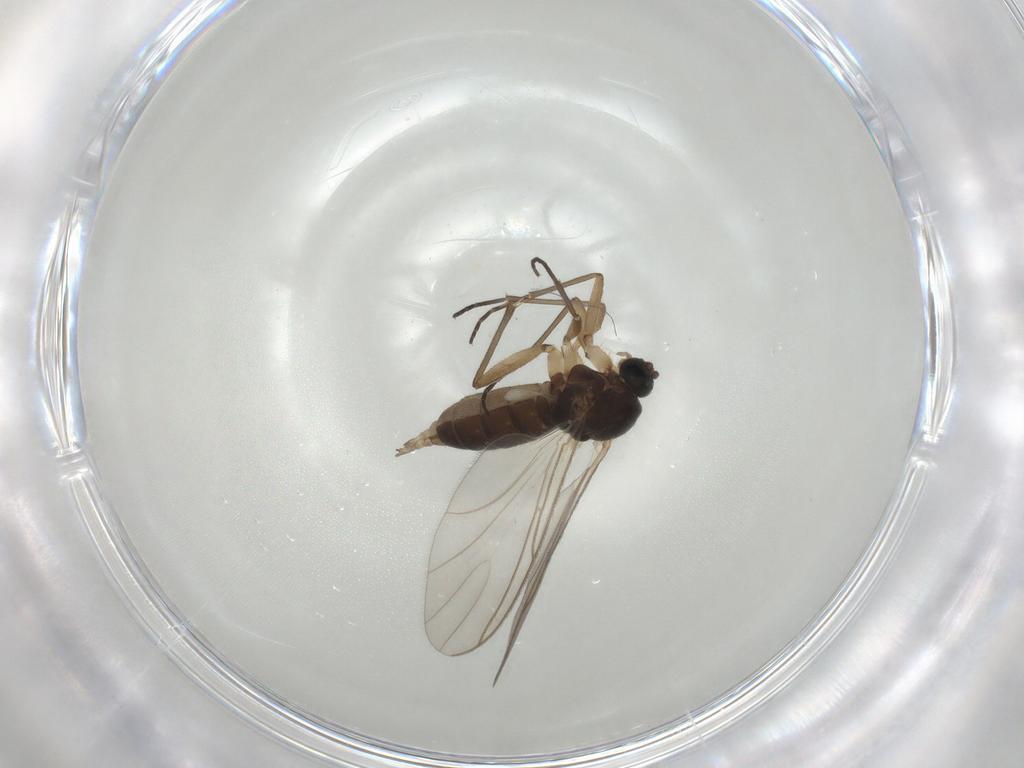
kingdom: Animalia
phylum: Arthropoda
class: Insecta
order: Diptera
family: Sciaridae
